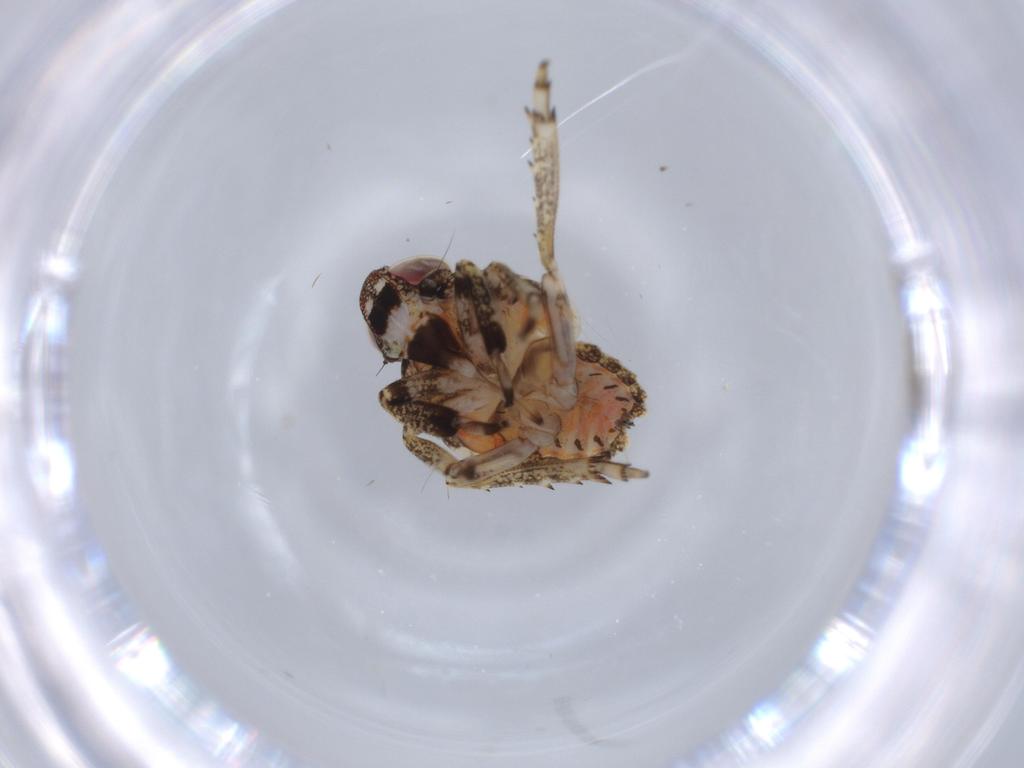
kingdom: Animalia
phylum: Arthropoda
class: Insecta
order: Hemiptera
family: Issidae
